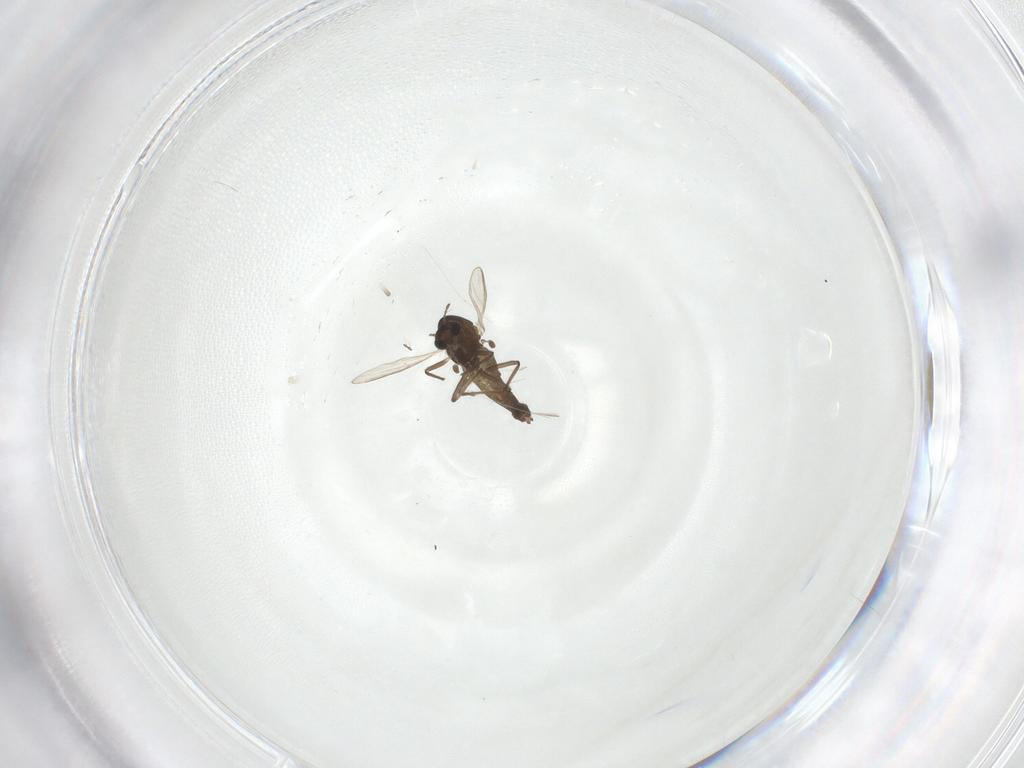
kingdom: Animalia
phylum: Arthropoda
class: Insecta
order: Diptera
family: Chironomidae
